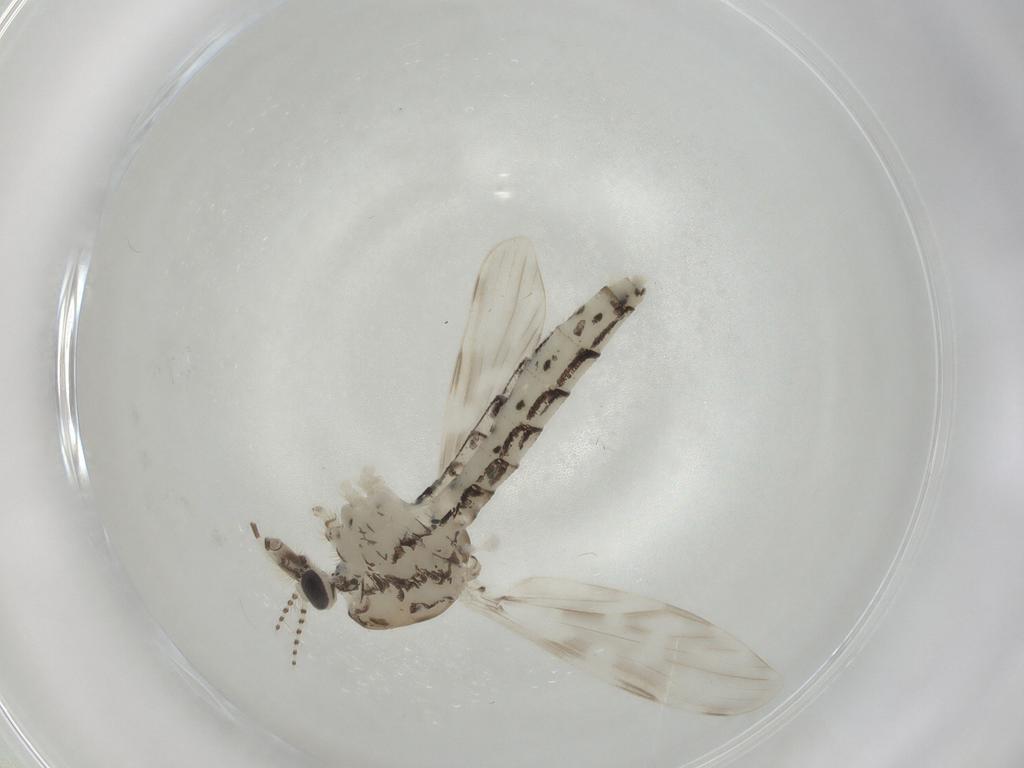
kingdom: Animalia
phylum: Arthropoda
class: Insecta
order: Diptera
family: Chaoboridae
